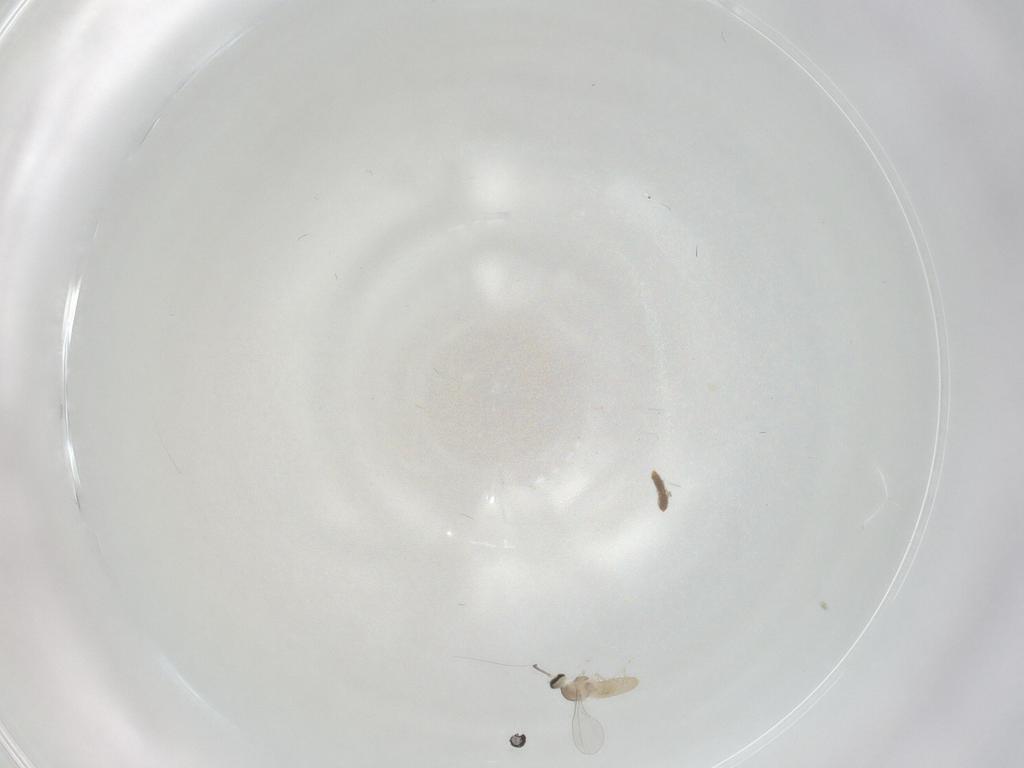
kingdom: Animalia
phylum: Arthropoda
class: Insecta
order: Diptera
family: Cecidomyiidae
